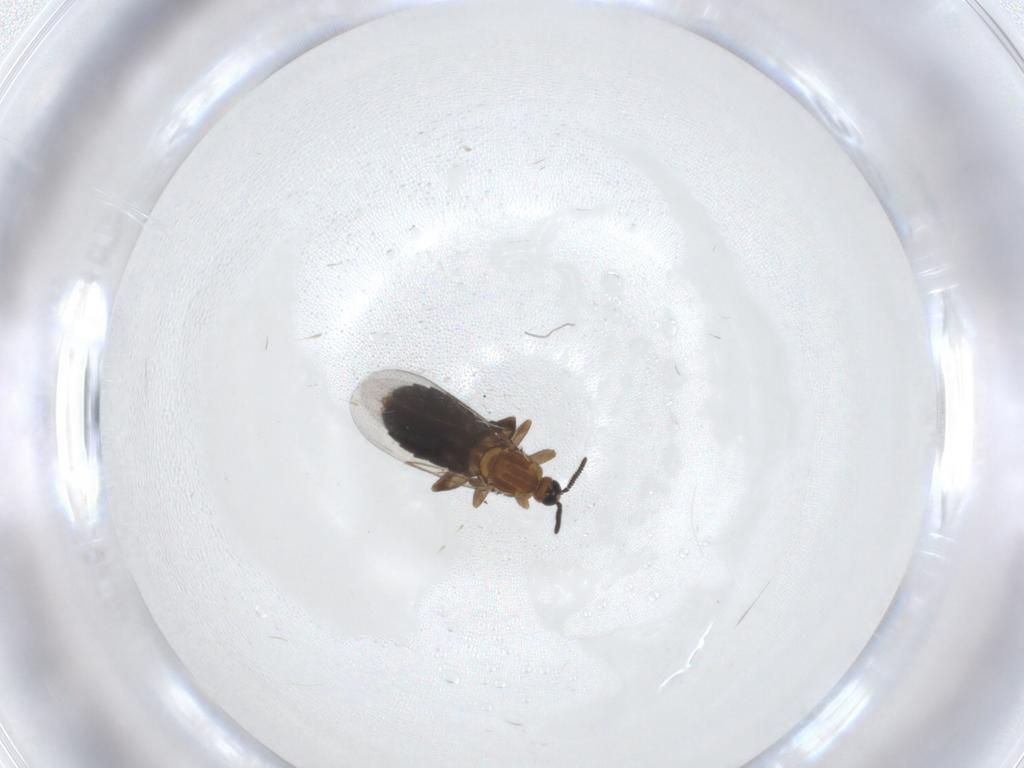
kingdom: Animalia
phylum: Arthropoda
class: Insecta
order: Diptera
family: Scatopsidae
